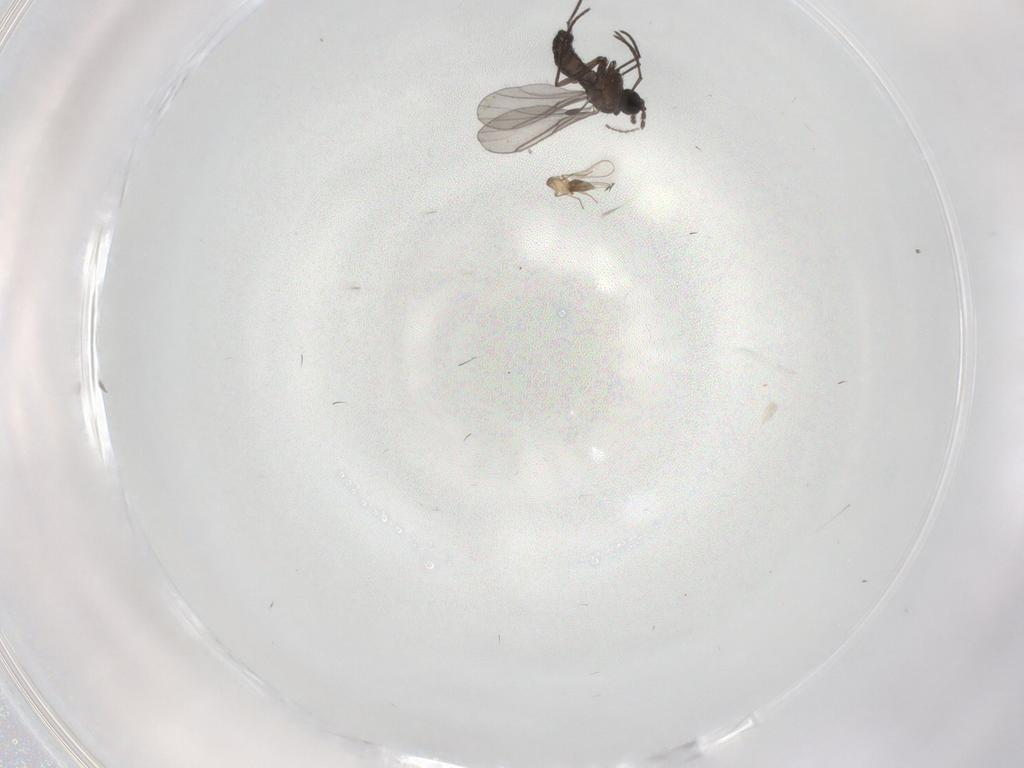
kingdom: Animalia
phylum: Arthropoda
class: Insecta
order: Diptera
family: Cecidomyiidae
